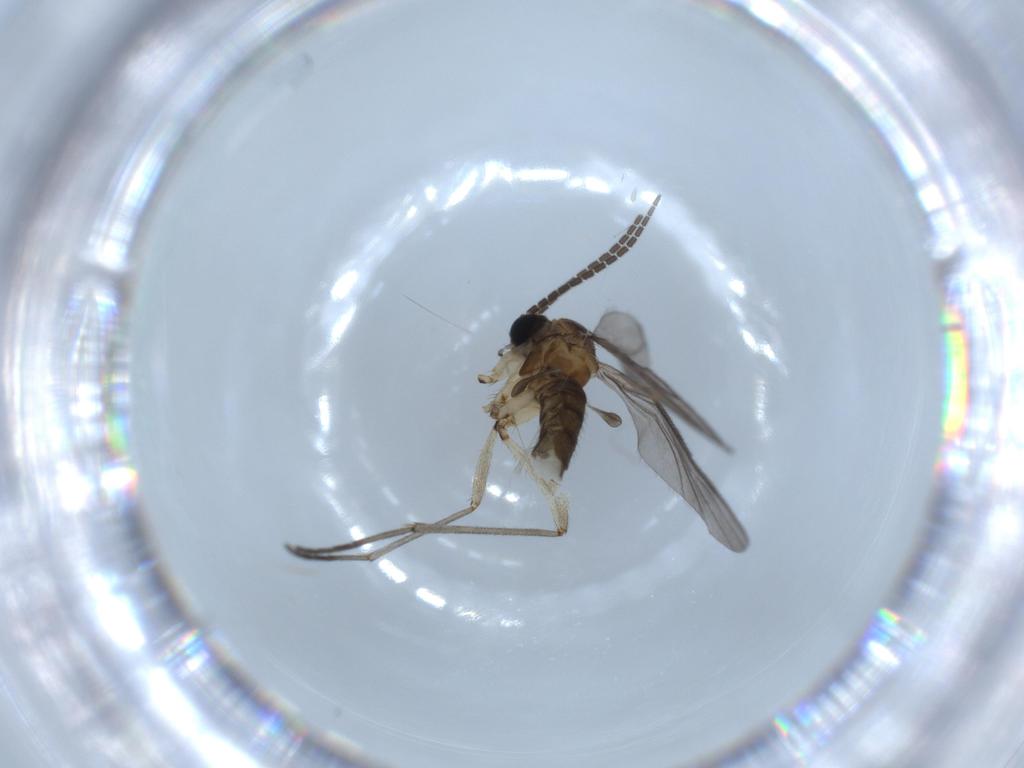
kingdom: Animalia
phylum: Arthropoda
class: Insecta
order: Diptera
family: Sciaridae
